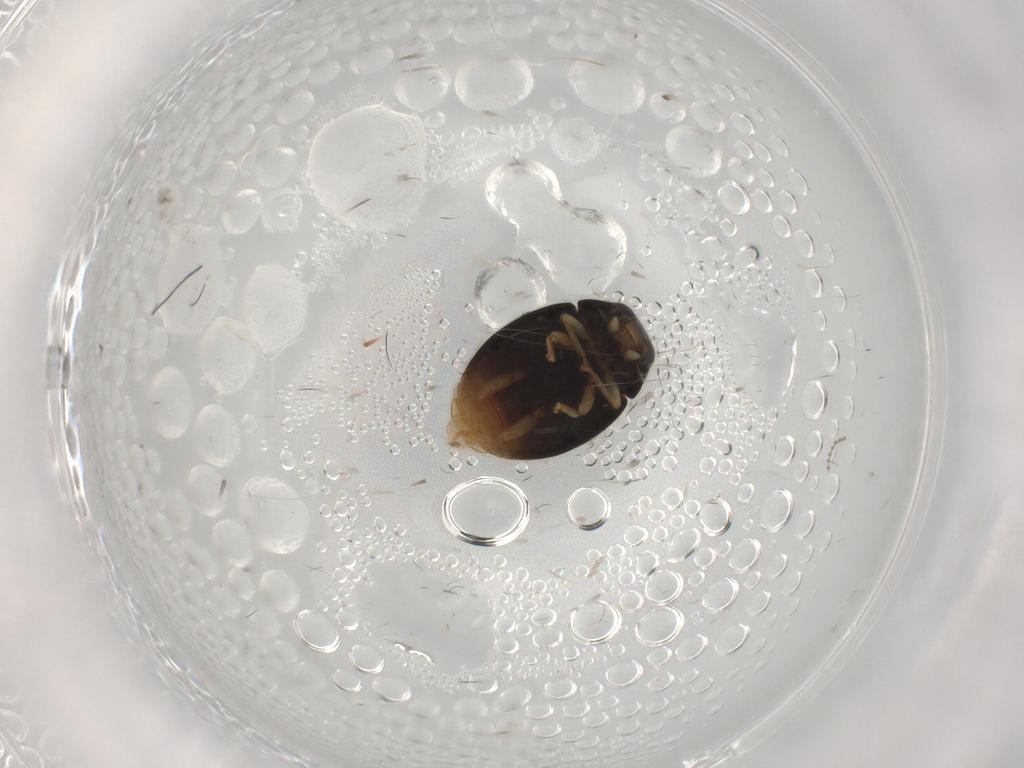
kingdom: Animalia
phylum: Arthropoda
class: Insecta
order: Coleoptera
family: Coccinellidae
